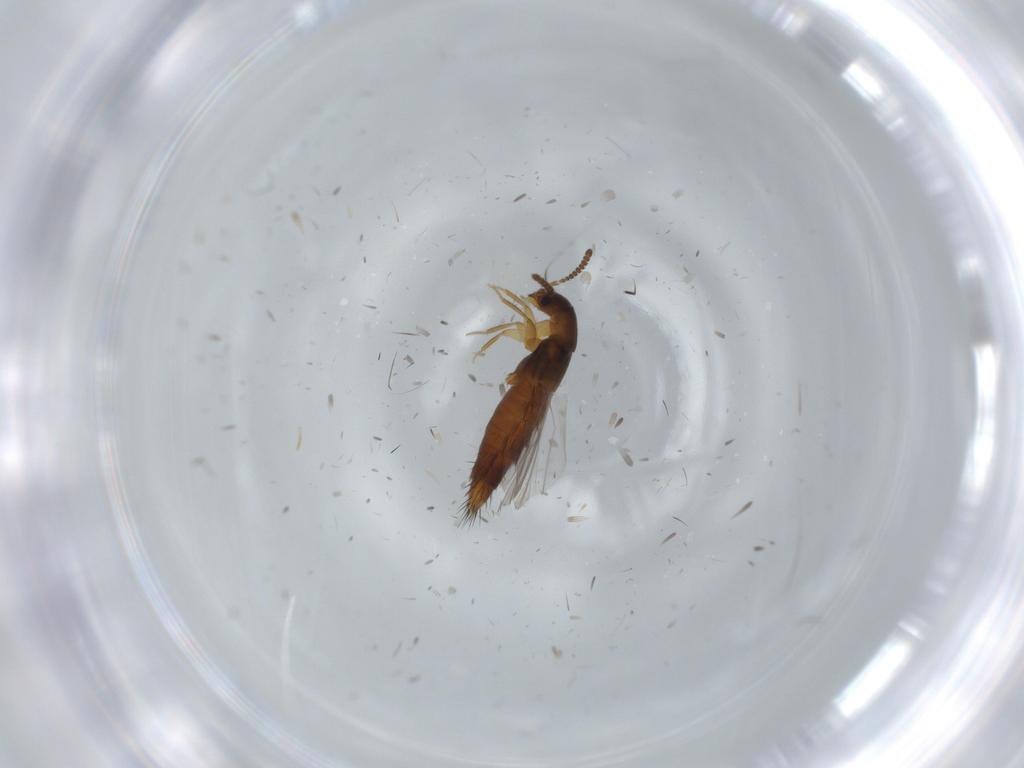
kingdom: Animalia
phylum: Arthropoda
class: Insecta
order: Coleoptera
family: Staphylinidae
